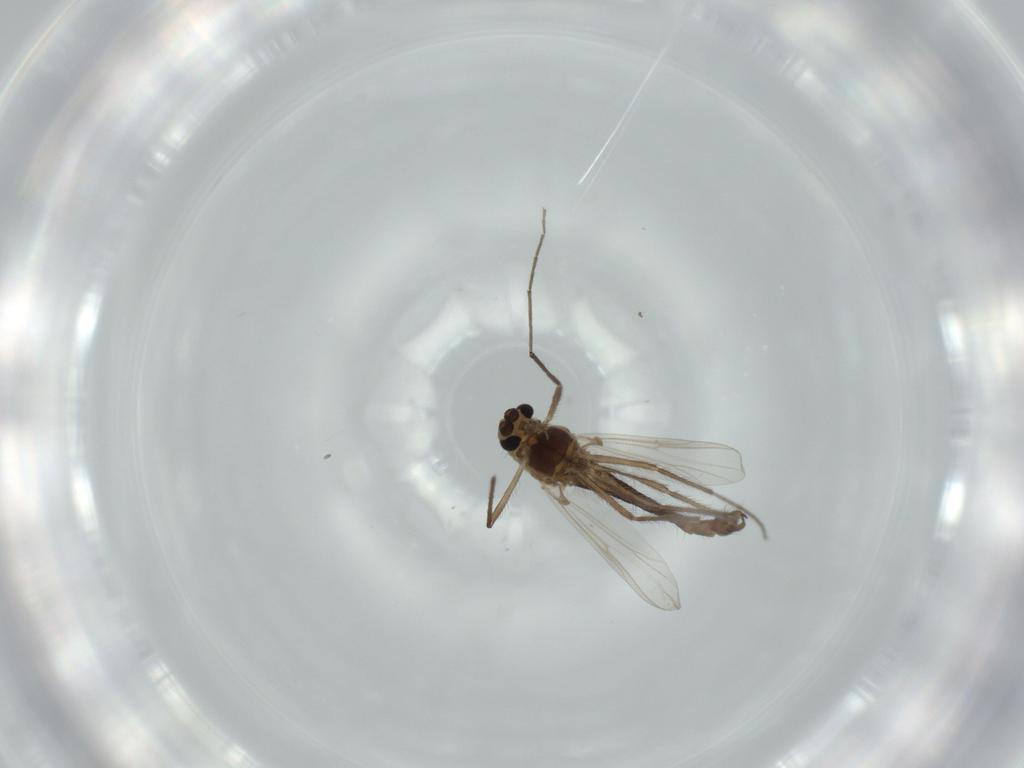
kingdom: Animalia
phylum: Arthropoda
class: Insecta
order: Diptera
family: Chironomidae
